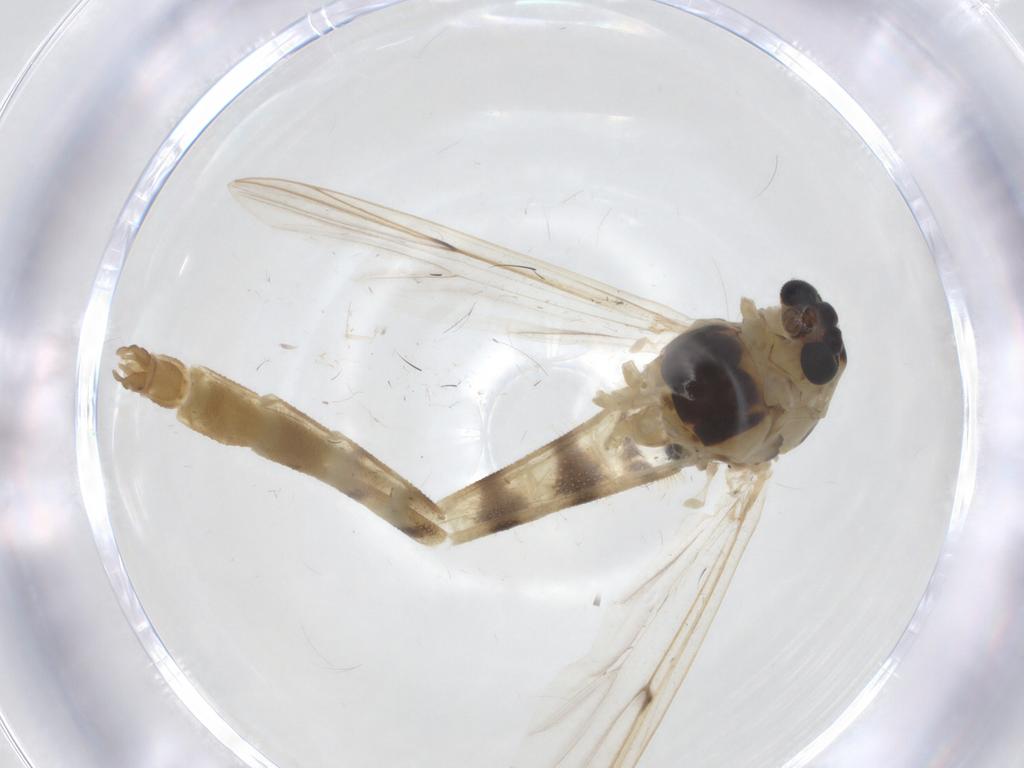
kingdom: Animalia
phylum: Arthropoda
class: Insecta
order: Diptera
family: Chironomidae
